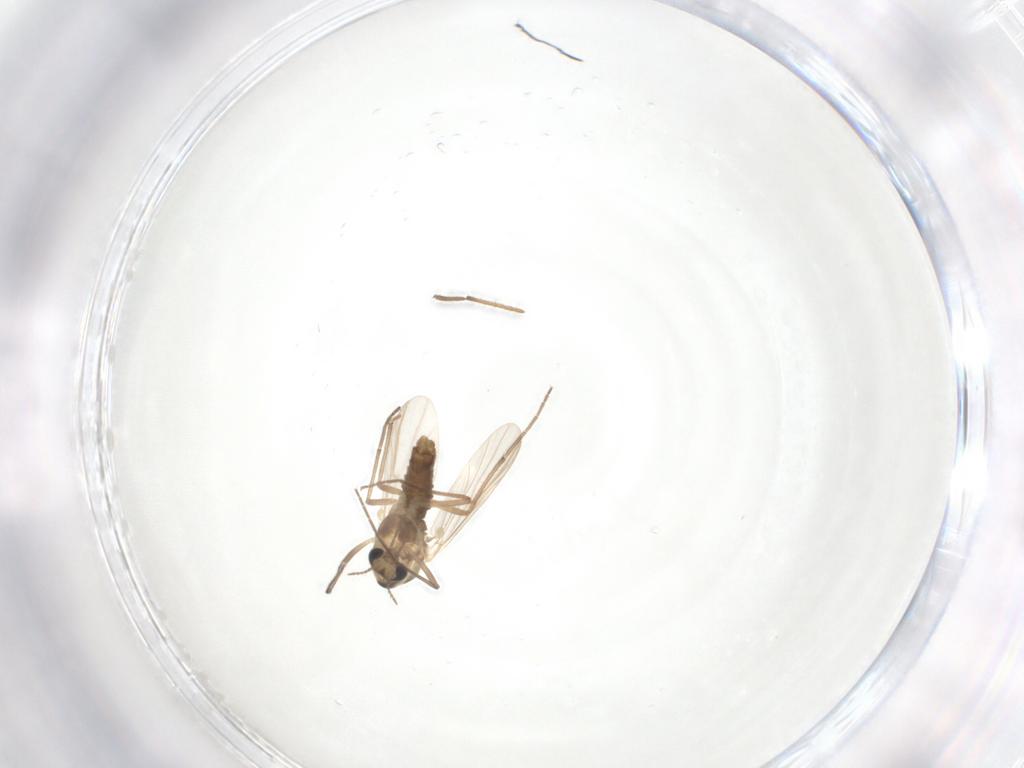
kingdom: Animalia
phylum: Arthropoda
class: Insecta
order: Diptera
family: Chironomidae
